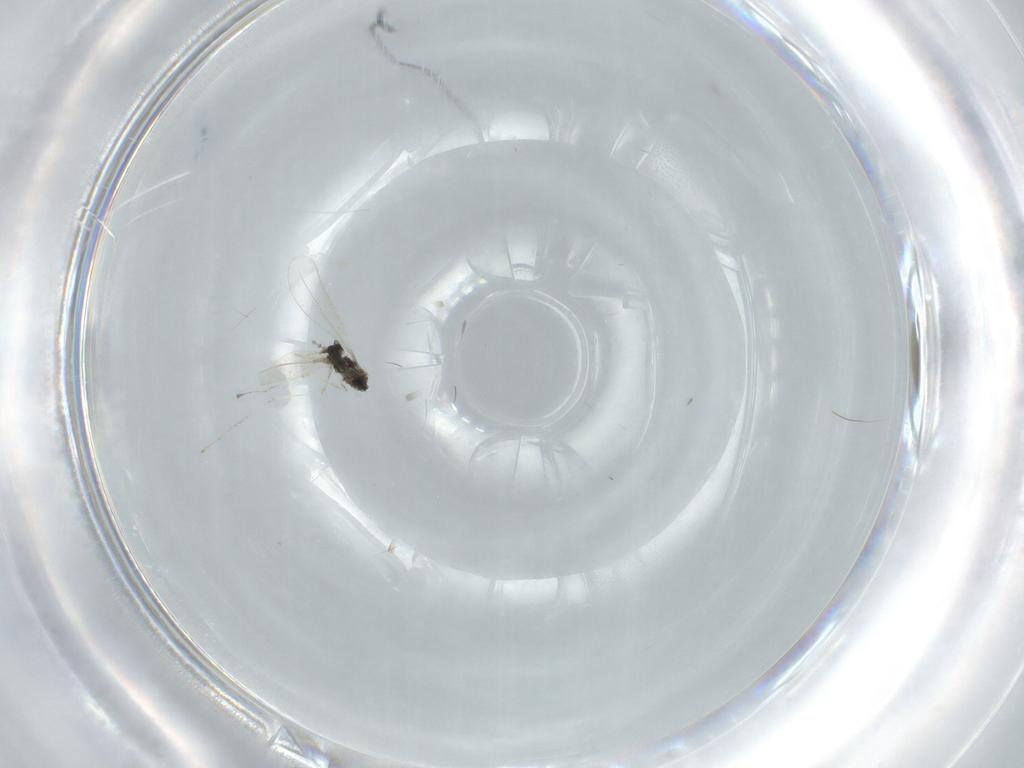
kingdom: Animalia
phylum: Arthropoda
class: Insecta
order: Diptera
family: Cecidomyiidae
